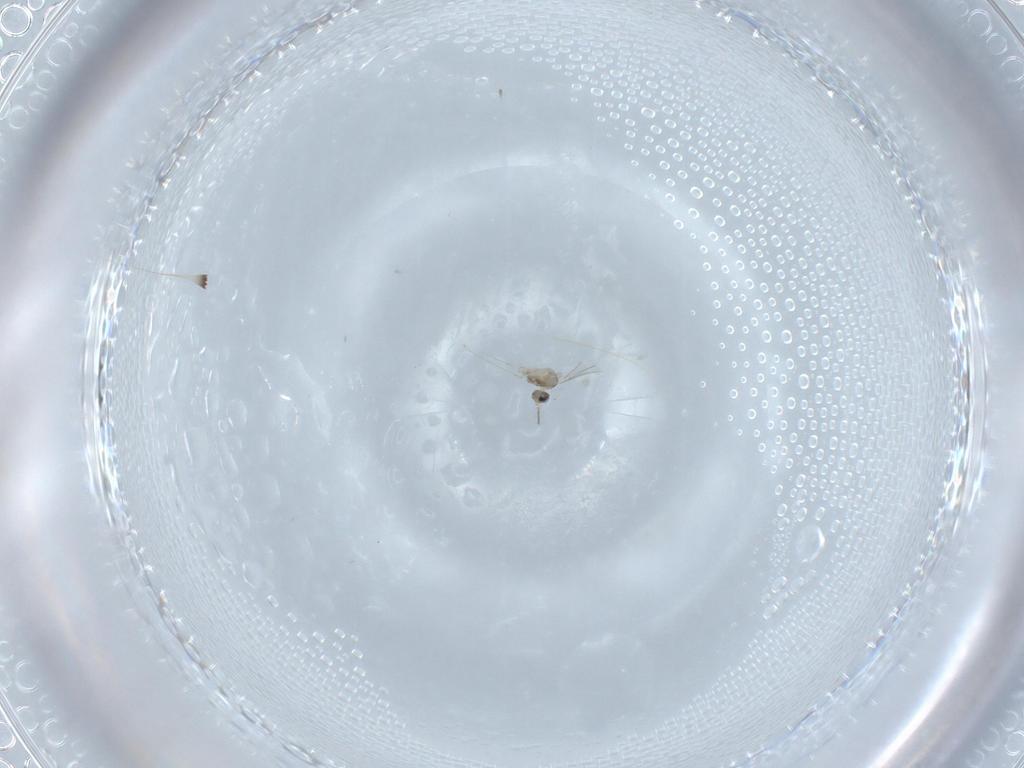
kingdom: Animalia
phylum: Arthropoda
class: Insecta
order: Diptera
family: Cecidomyiidae
